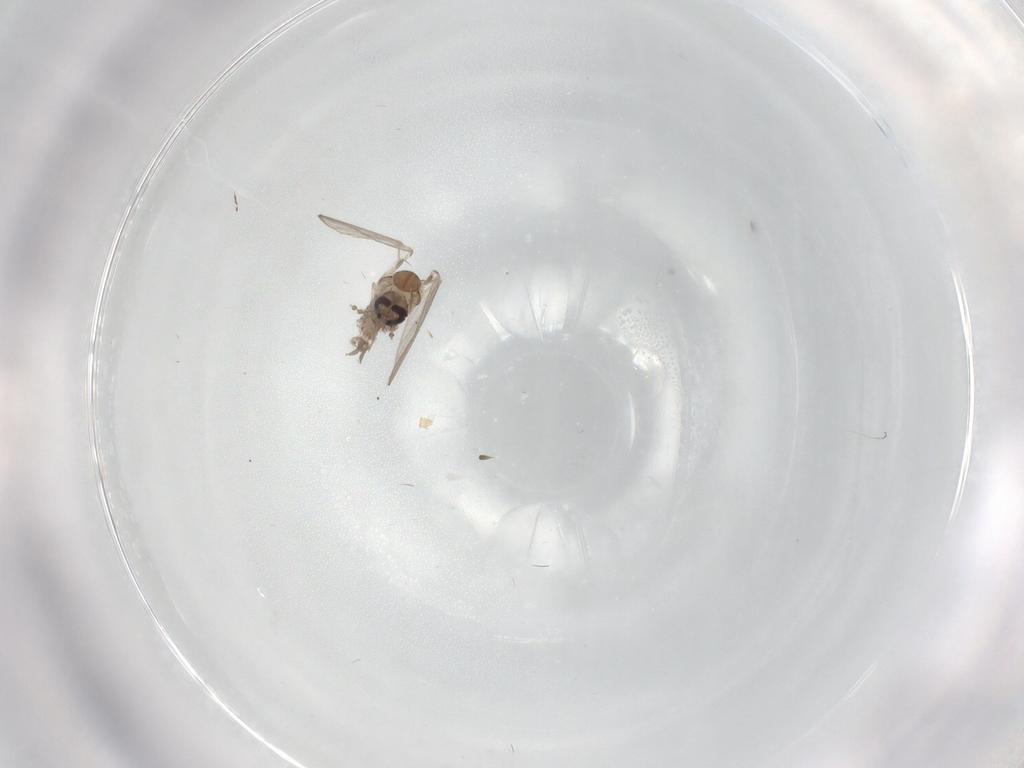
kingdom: Animalia
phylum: Arthropoda
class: Insecta
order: Diptera
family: Psychodidae
